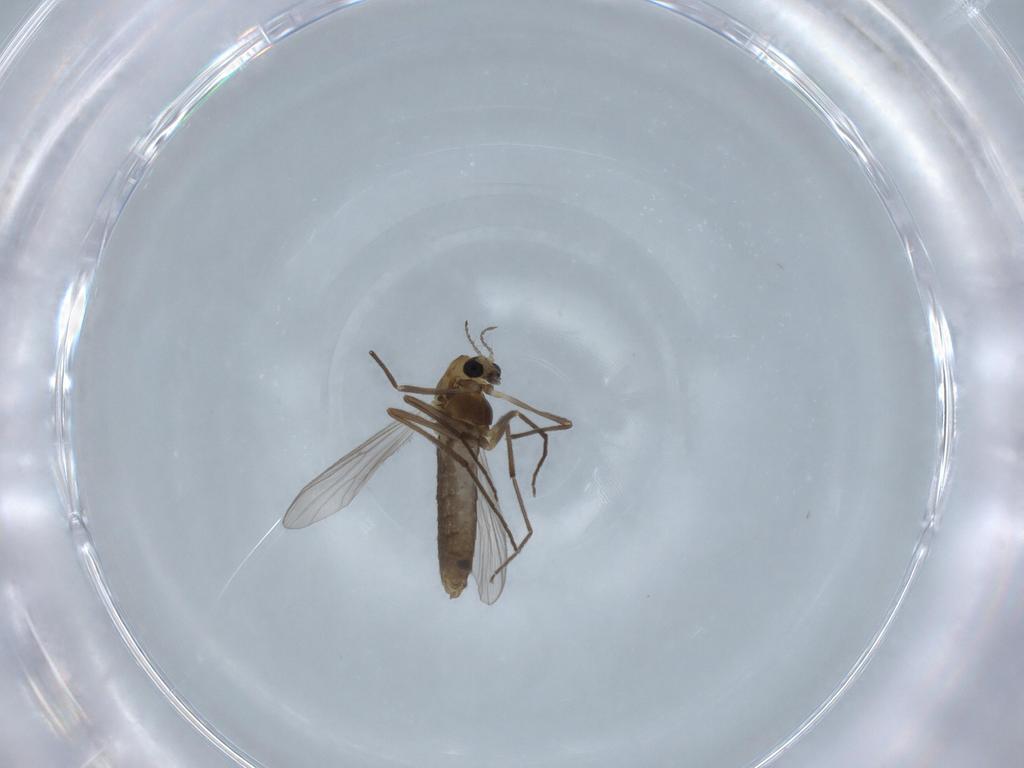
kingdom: Animalia
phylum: Arthropoda
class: Insecta
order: Diptera
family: Chironomidae
